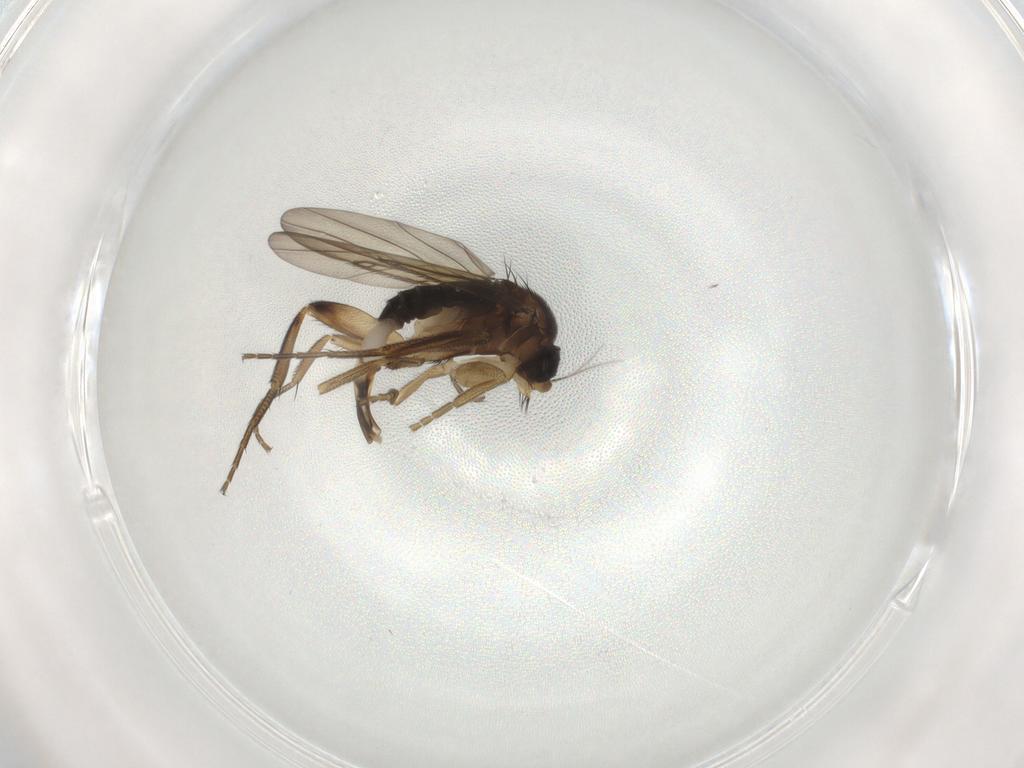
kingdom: Animalia
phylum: Arthropoda
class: Insecta
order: Diptera
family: Phoridae
